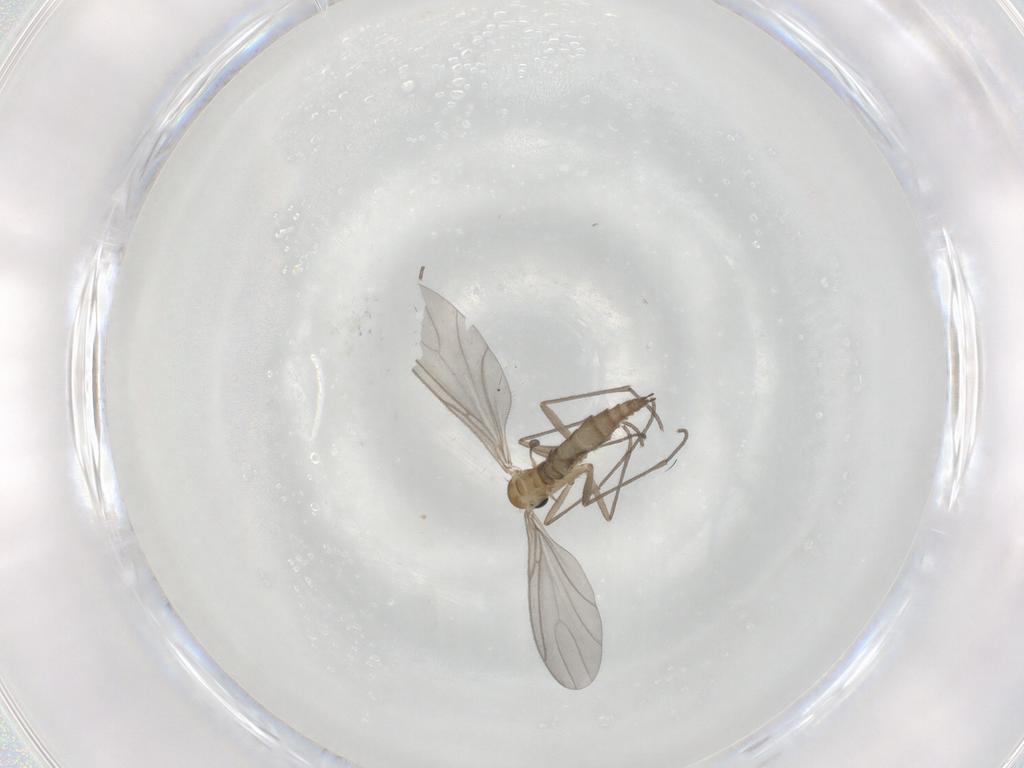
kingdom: Animalia
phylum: Arthropoda
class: Insecta
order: Diptera
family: Sciaridae
